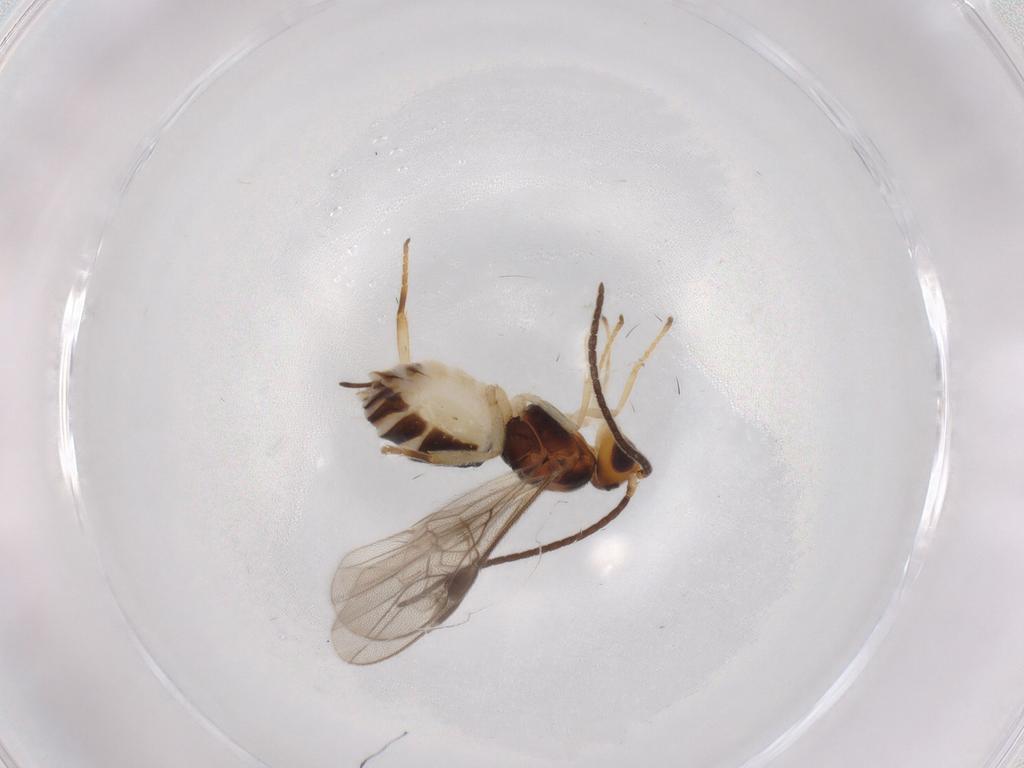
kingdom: Animalia
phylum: Arthropoda
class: Insecta
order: Hymenoptera
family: Braconidae
